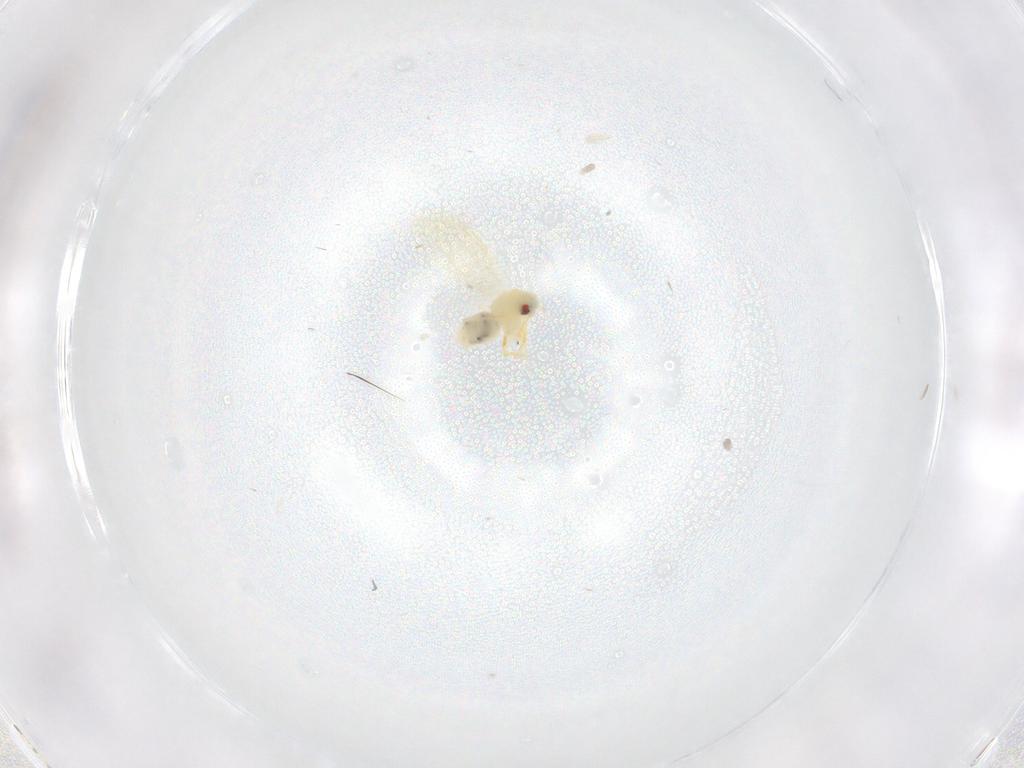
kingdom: Animalia
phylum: Arthropoda
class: Insecta
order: Hemiptera
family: Aleyrodidae
